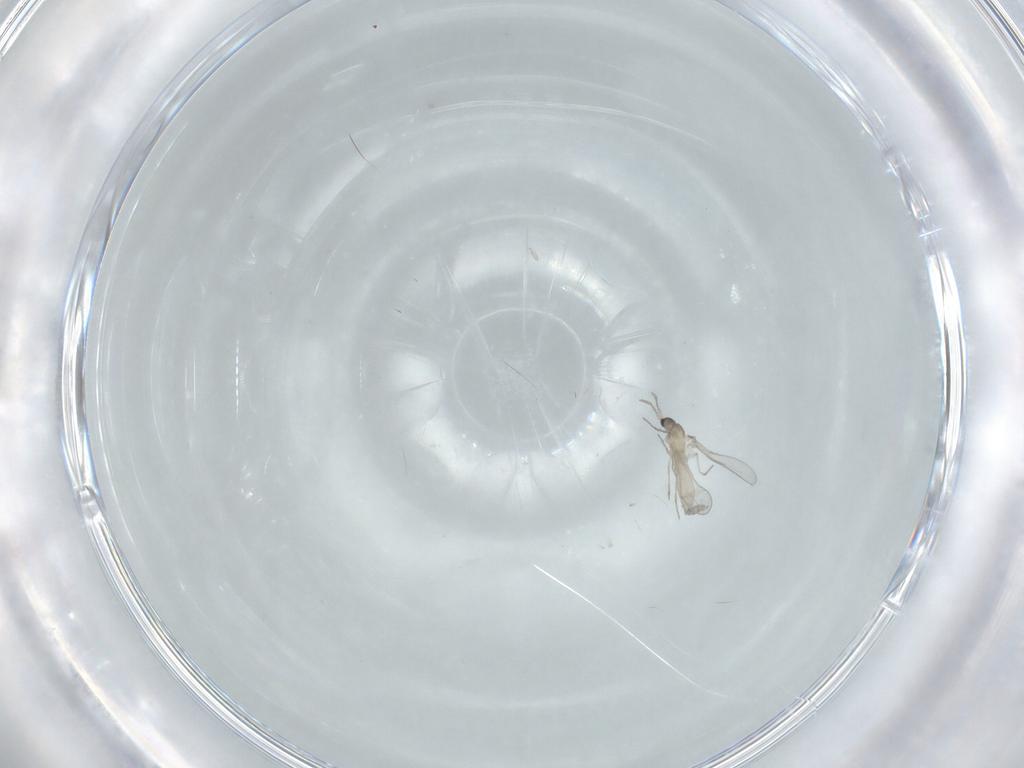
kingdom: Animalia
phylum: Arthropoda
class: Insecta
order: Diptera
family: Cecidomyiidae
